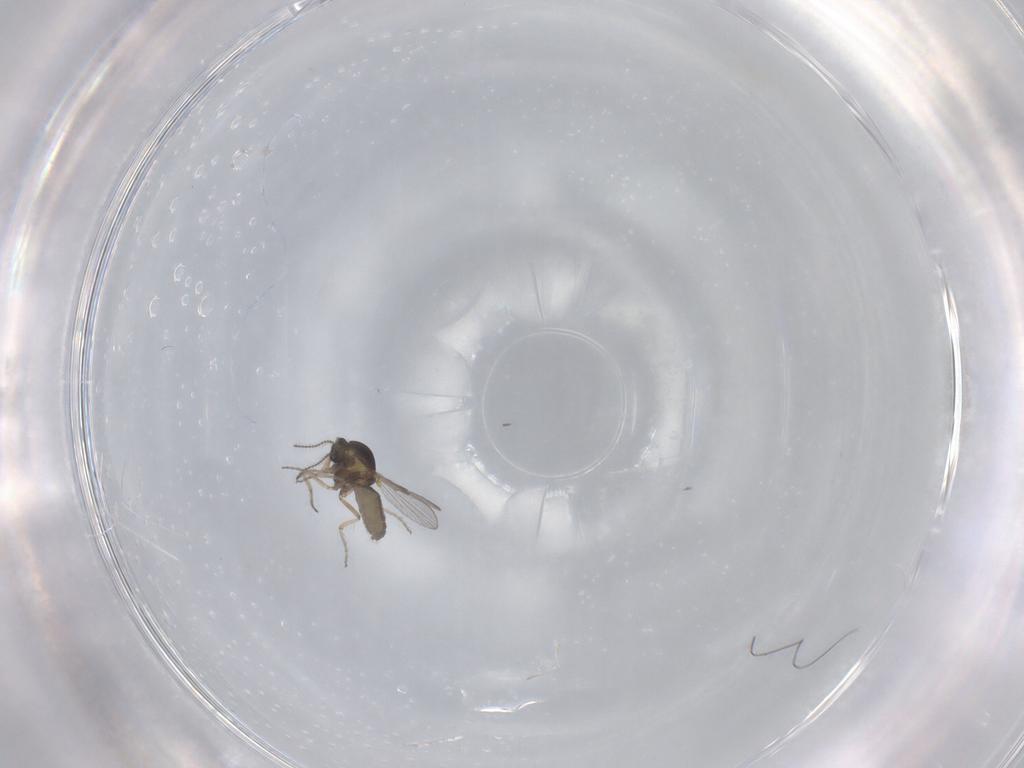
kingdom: Animalia
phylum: Arthropoda
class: Insecta
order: Diptera
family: Ceratopogonidae
